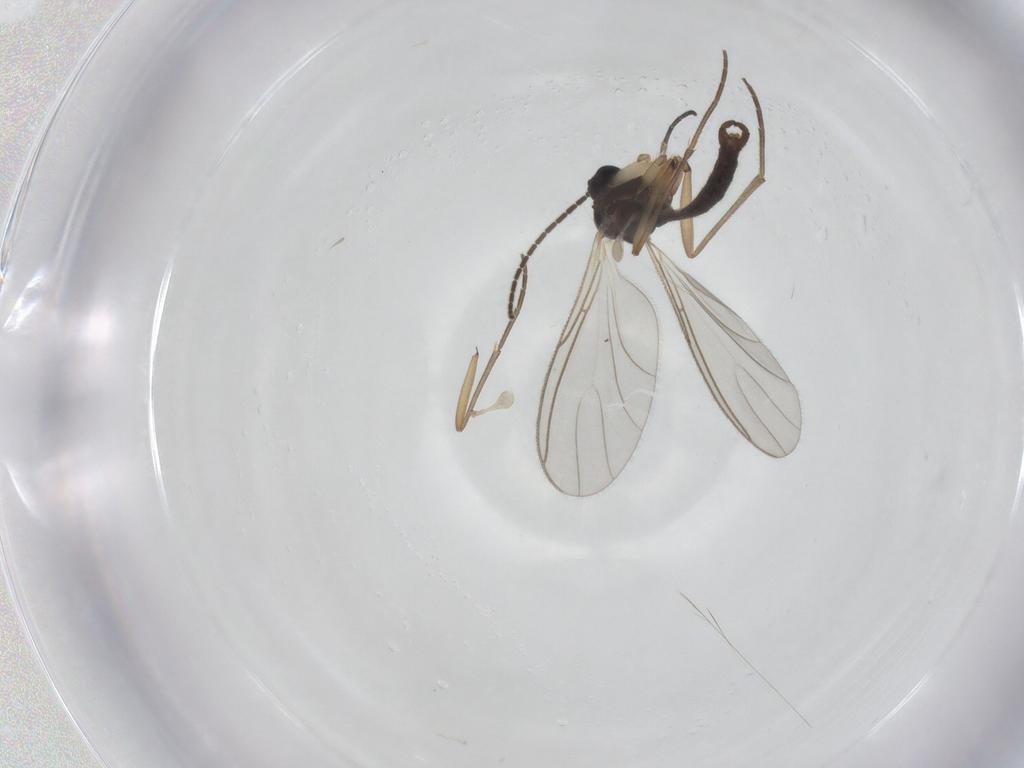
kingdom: Animalia
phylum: Arthropoda
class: Insecta
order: Diptera
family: Sciaridae
